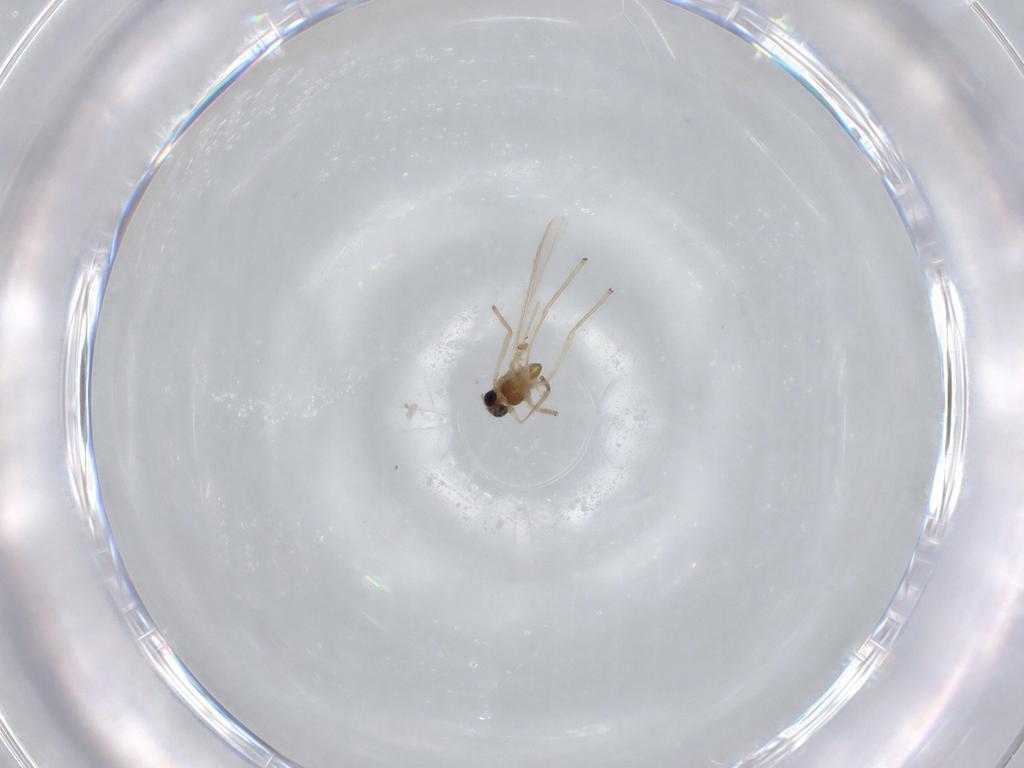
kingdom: Animalia
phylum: Arthropoda
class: Insecta
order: Diptera
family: Chironomidae
